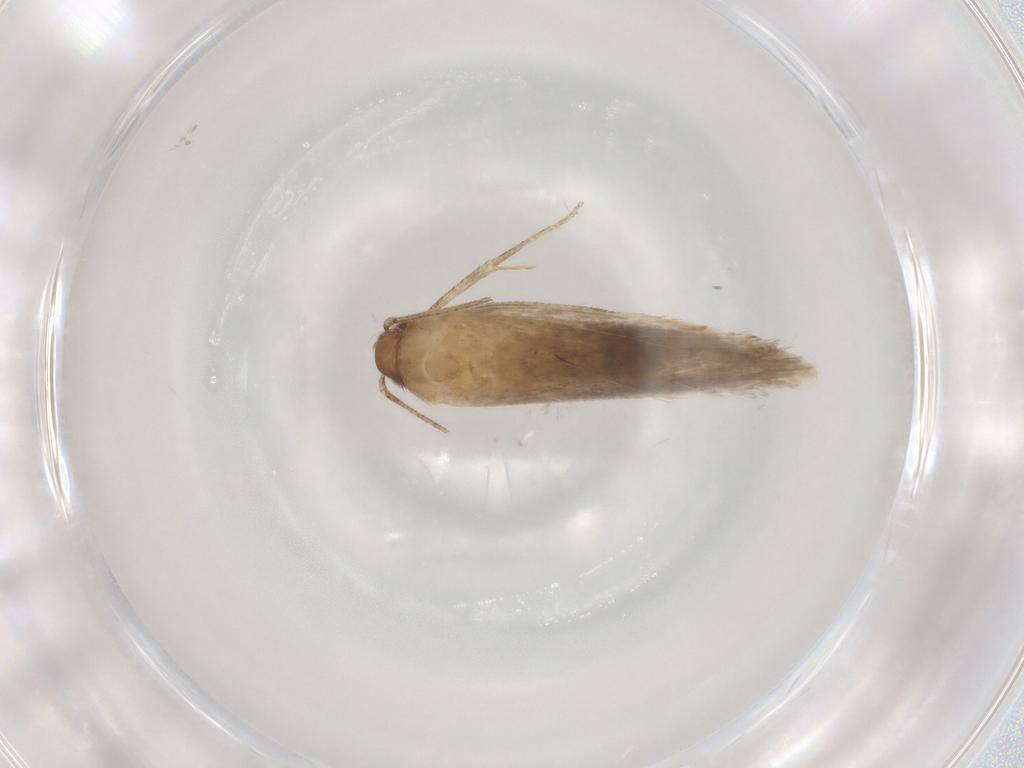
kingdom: Animalia
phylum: Arthropoda
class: Insecta
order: Lepidoptera
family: Gelechiidae
